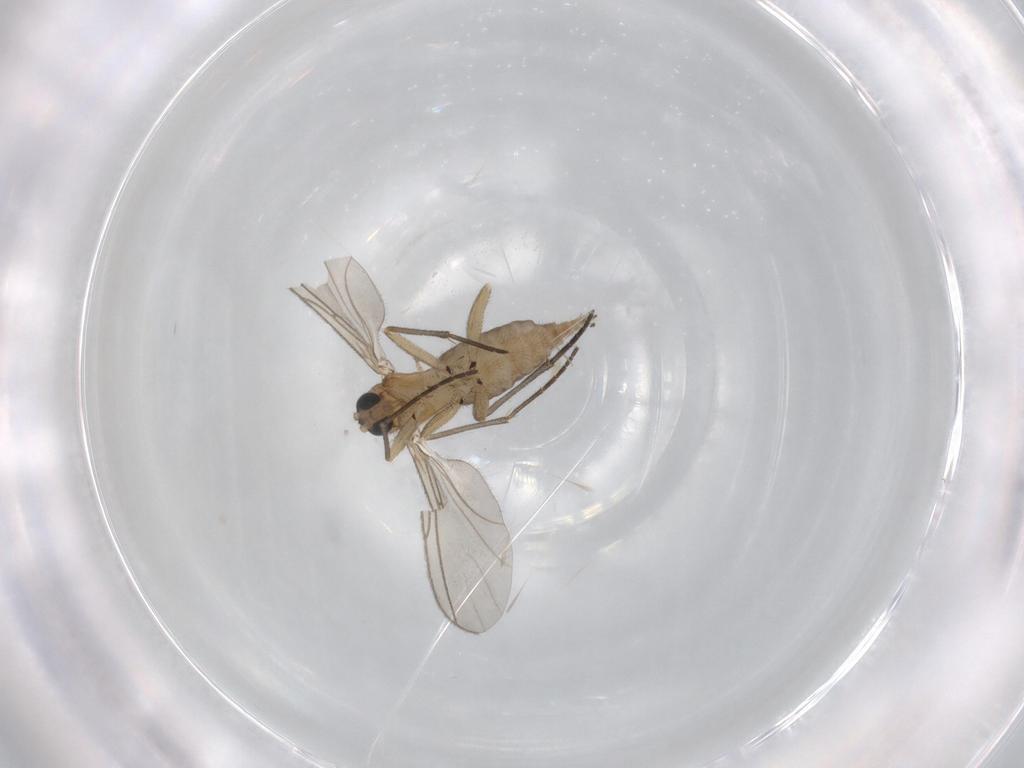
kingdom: Animalia
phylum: Arthropoda
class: Insecta
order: Diptera
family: Sciaridae
